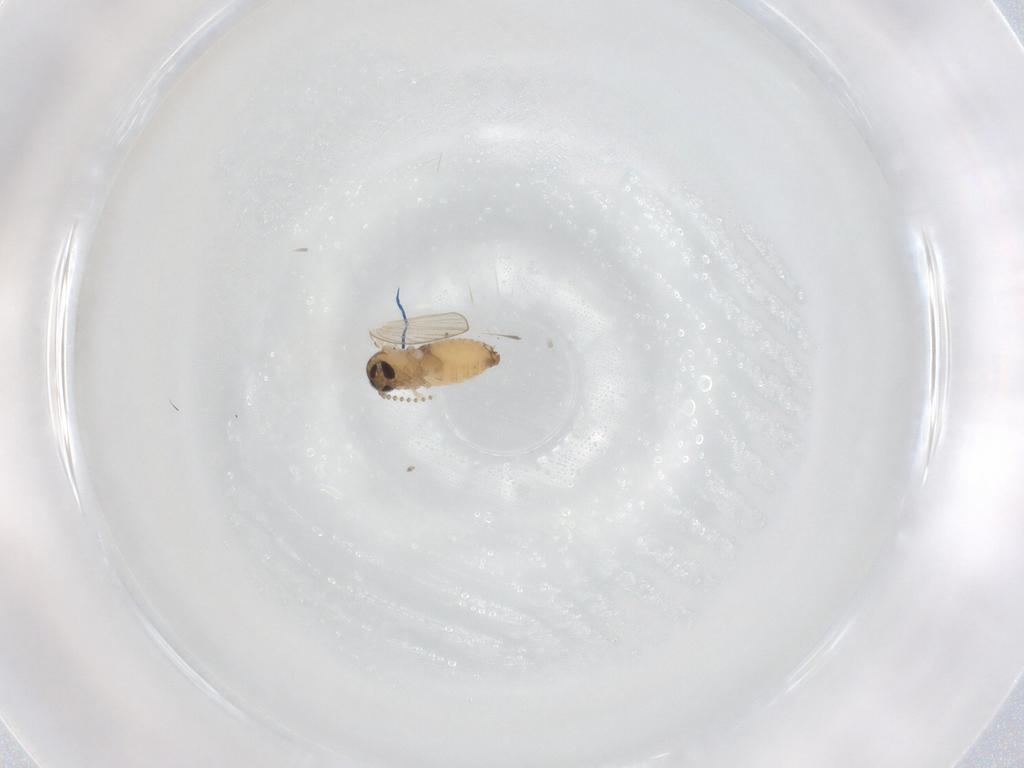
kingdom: Animalia
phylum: Arthropoda
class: Insecta
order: Diptera
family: Psychodidae
